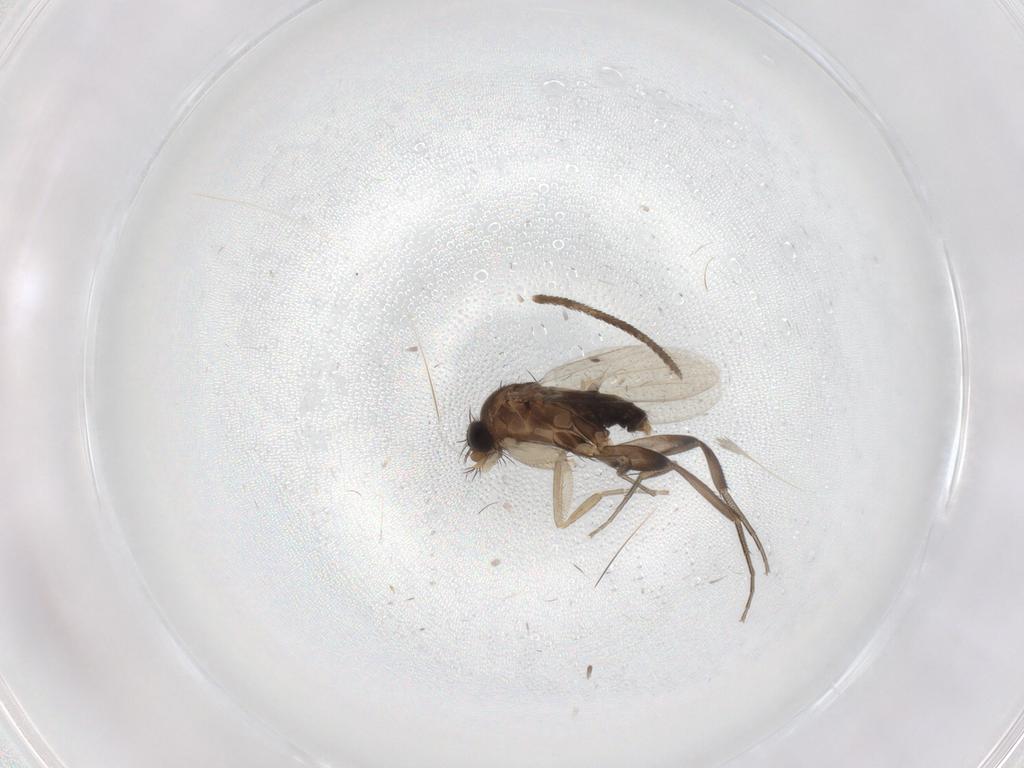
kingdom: Animalia
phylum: Arthropoda
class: Insecta
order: Diptera
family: Phoridae
